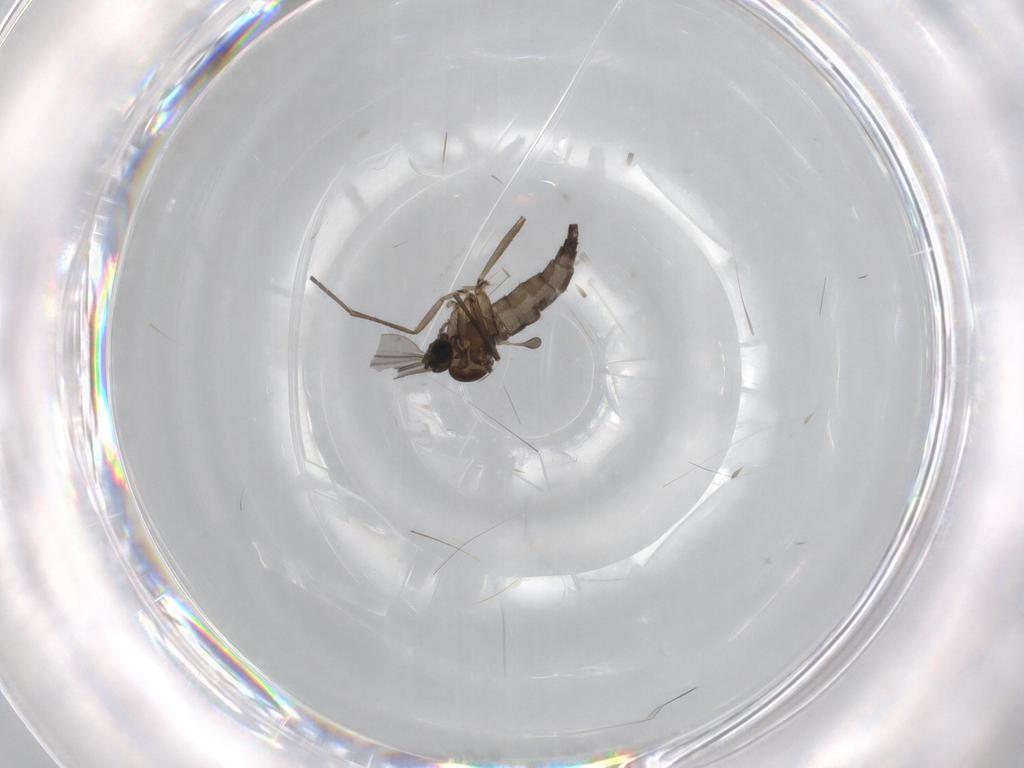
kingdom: Animalia
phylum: Arthropoda
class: Insecta
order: Diptera
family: Sciaridae
